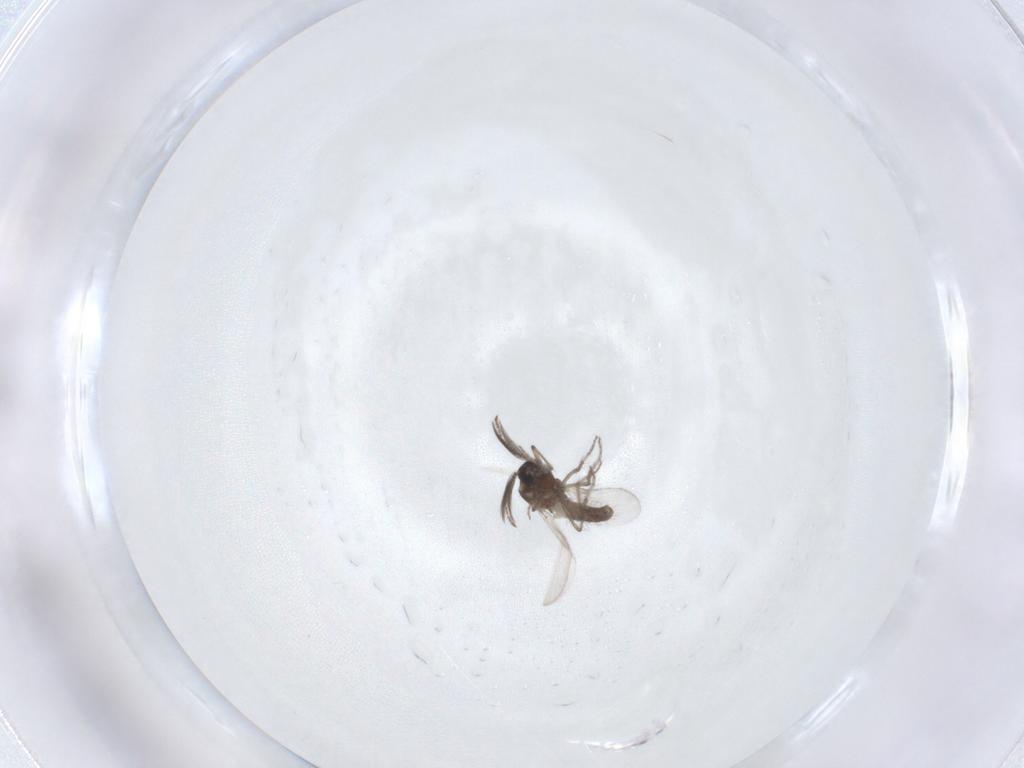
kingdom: Animalia
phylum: Arthropoda
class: Insecta
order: Diptera
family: Ceratopogonidae
